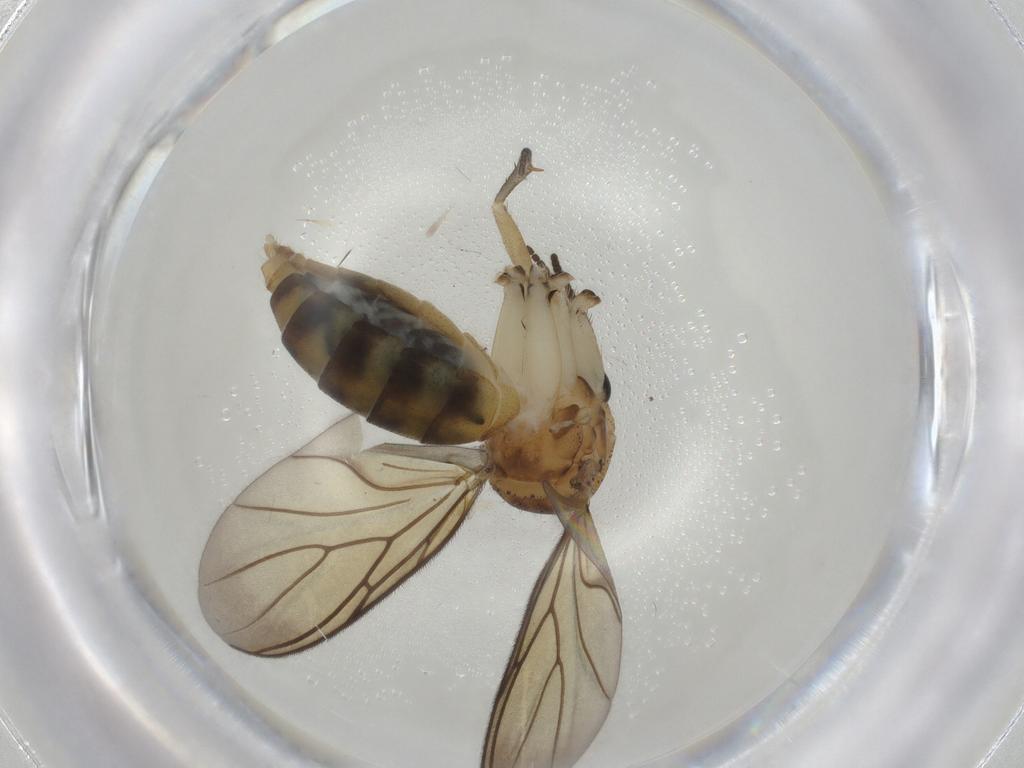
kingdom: Animalia
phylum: Arthropoda
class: Insecta
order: Diptera
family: Mycetophilidae
